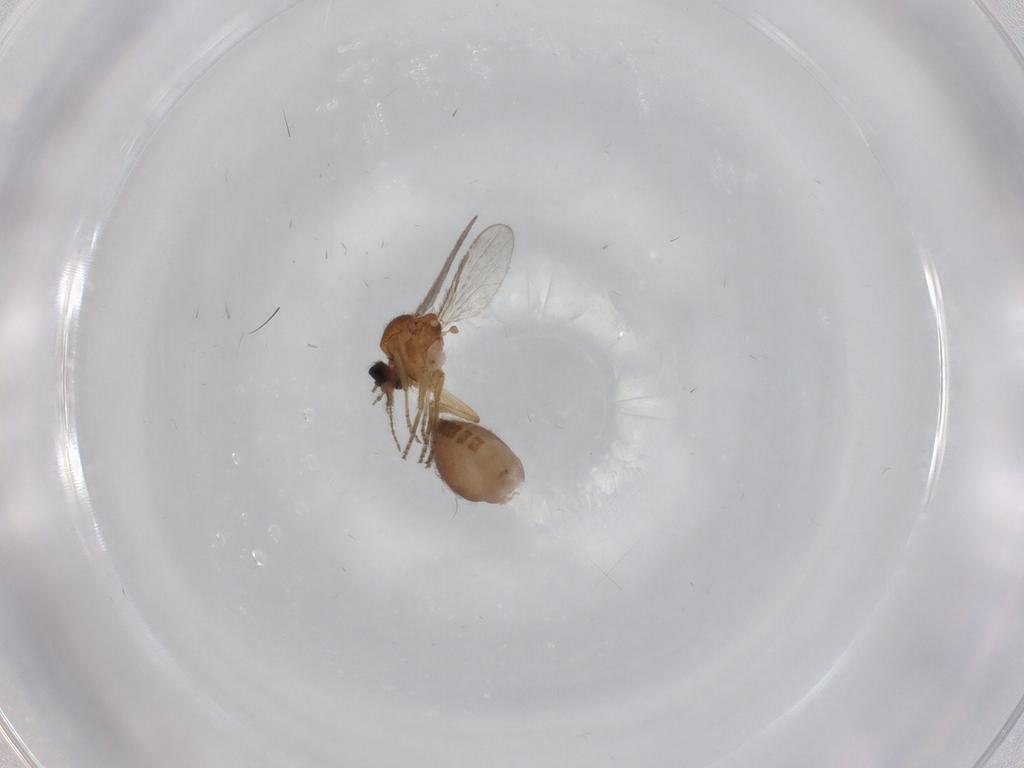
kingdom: Animalia
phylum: Arthropoda
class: Insecta
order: Diptera
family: Ceratopogonidae
